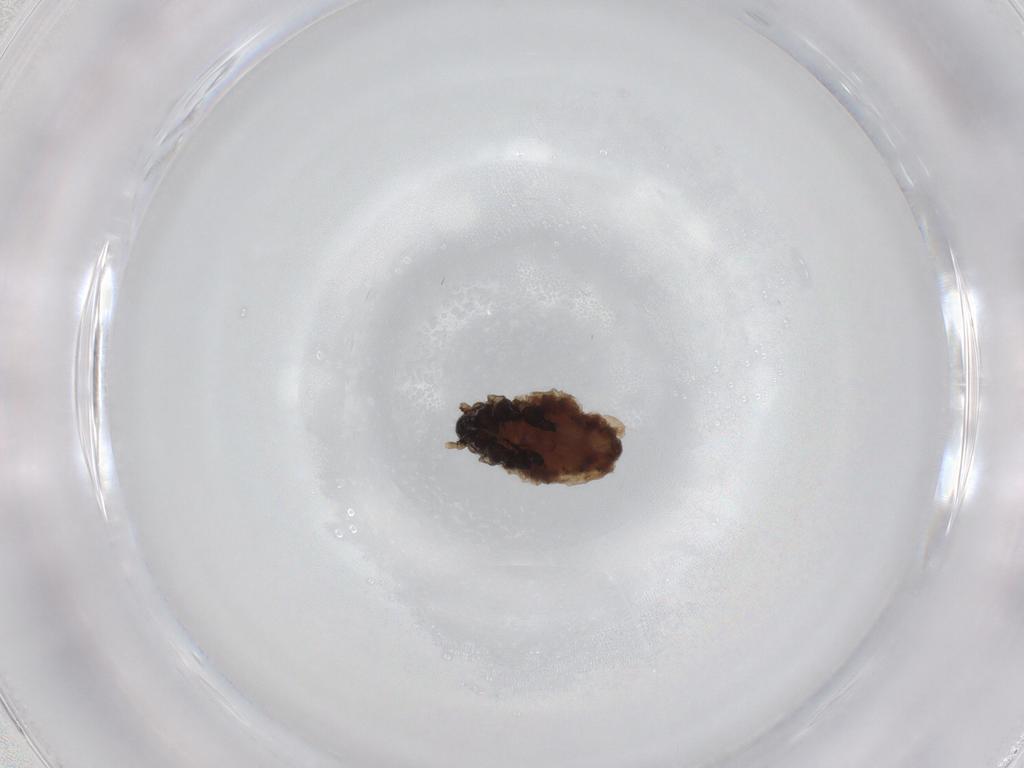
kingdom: Animalia
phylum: Arthropoda
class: Insecta
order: Hemiptera
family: Aphididae
